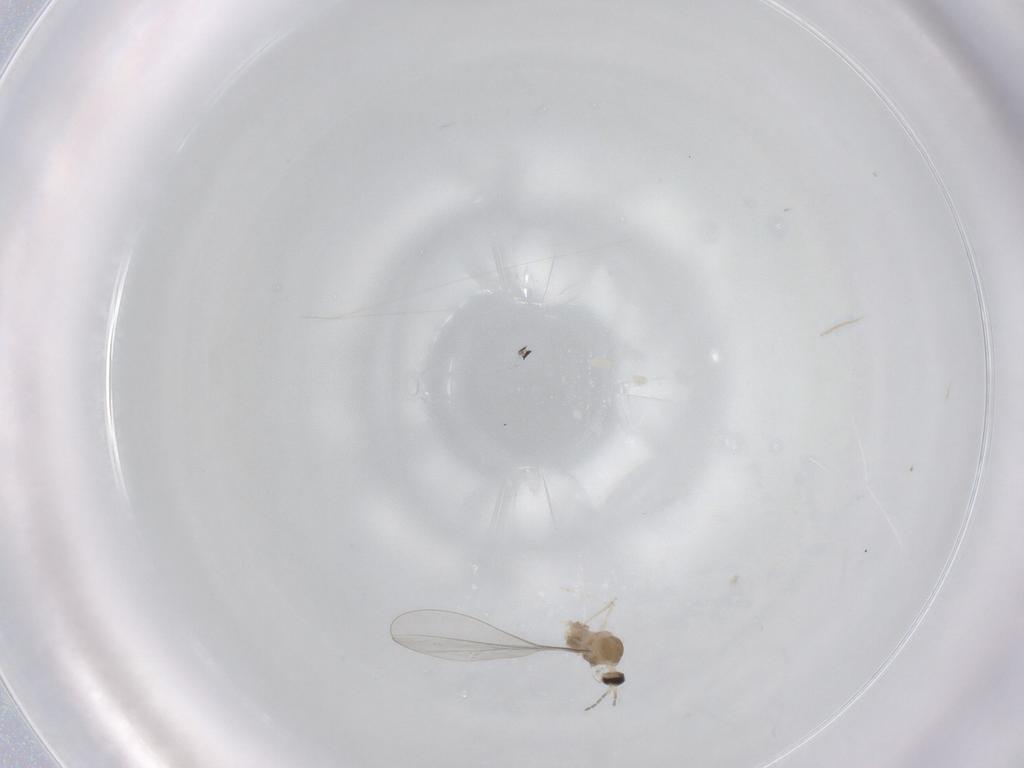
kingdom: Animalia
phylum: Arthropoda
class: Insecta
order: Diptera
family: Cecidomyiidae
